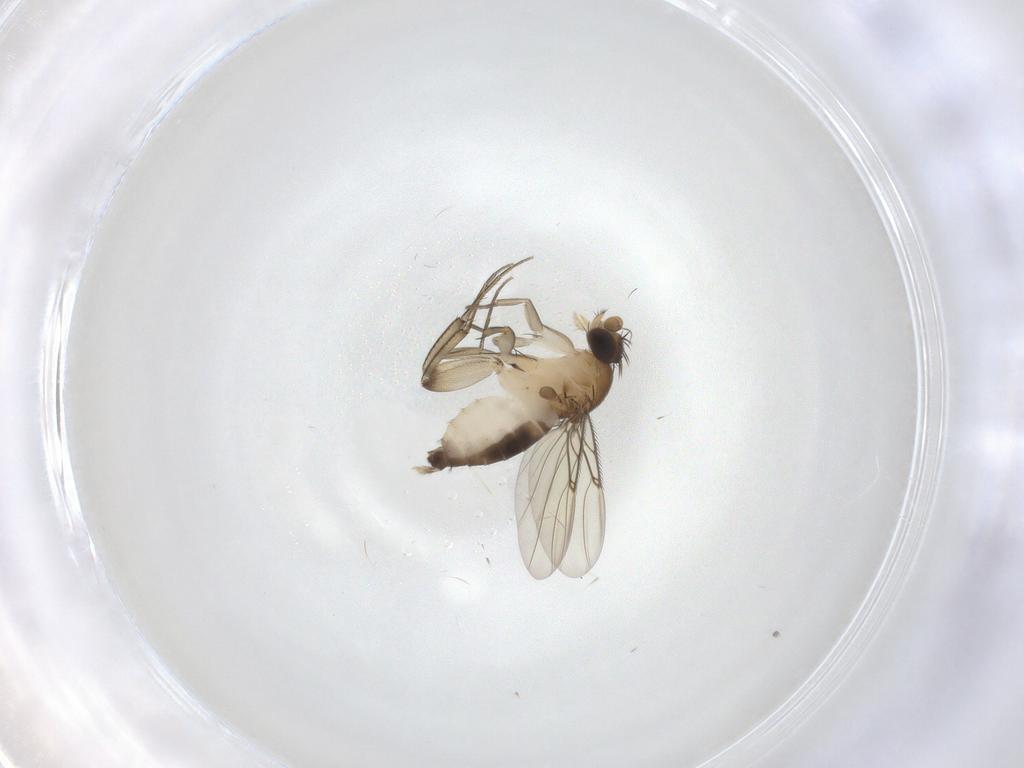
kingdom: Animalia
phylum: Arthropoda
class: Insecta
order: Diptera
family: Phoridae
